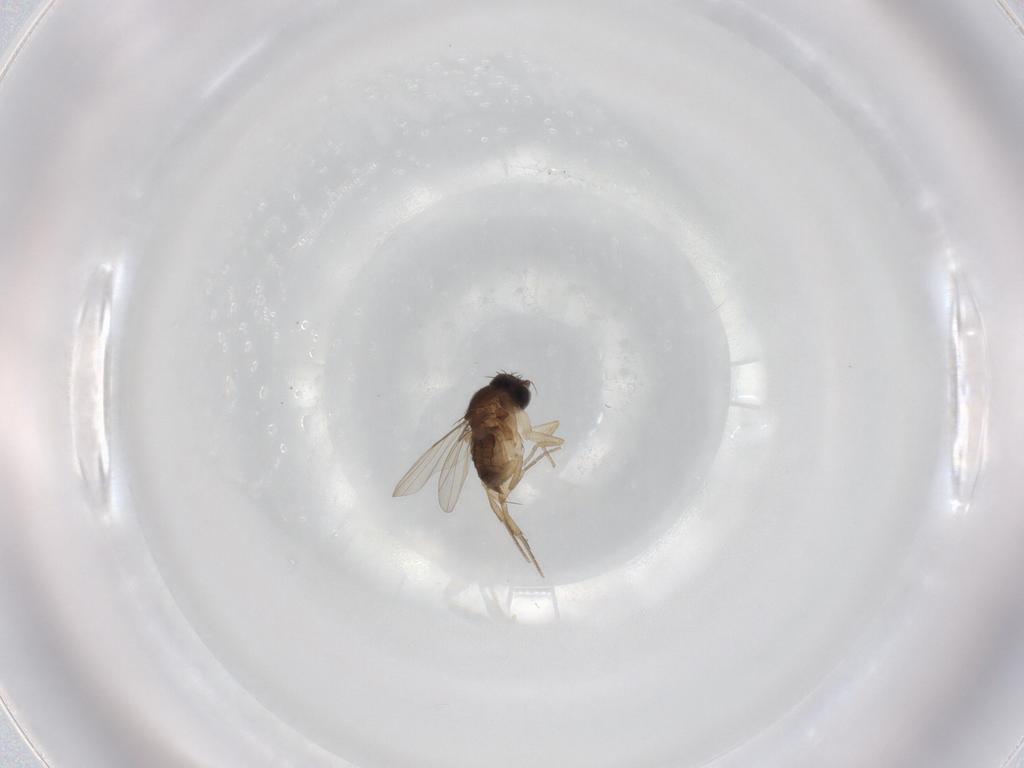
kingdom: Animalia
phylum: Arthropoda
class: Insecta
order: Diptera
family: Phoridae
